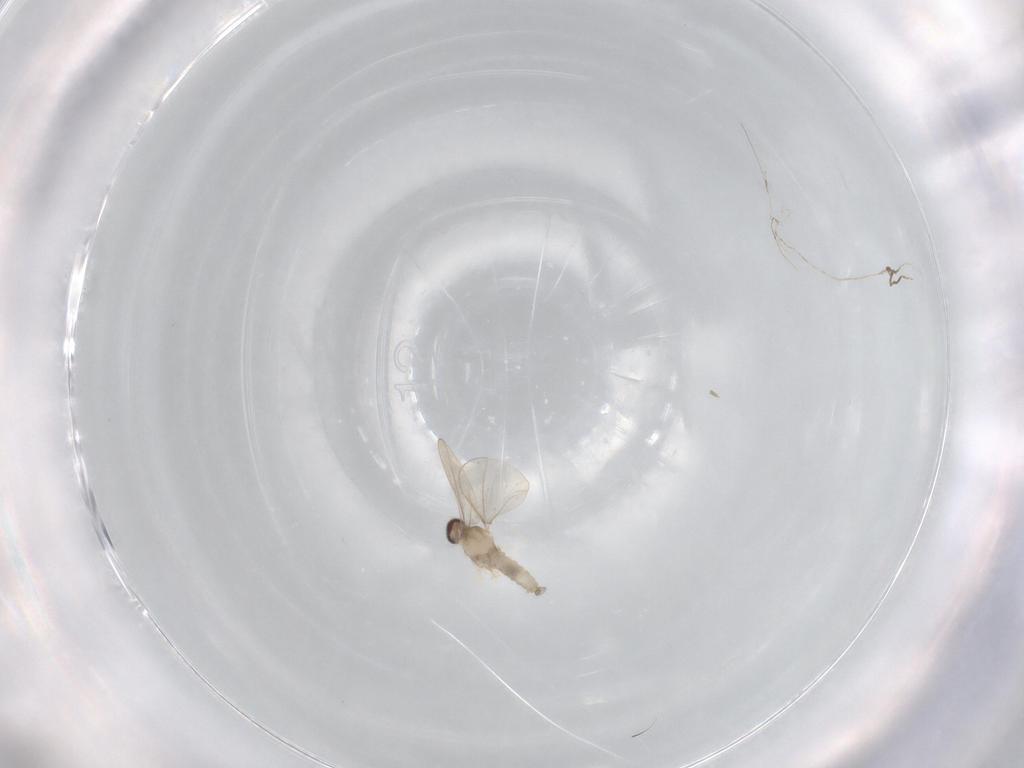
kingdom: Animalia
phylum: Arthropoda
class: Insecta
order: Diptera
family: Cecidomyiidae
